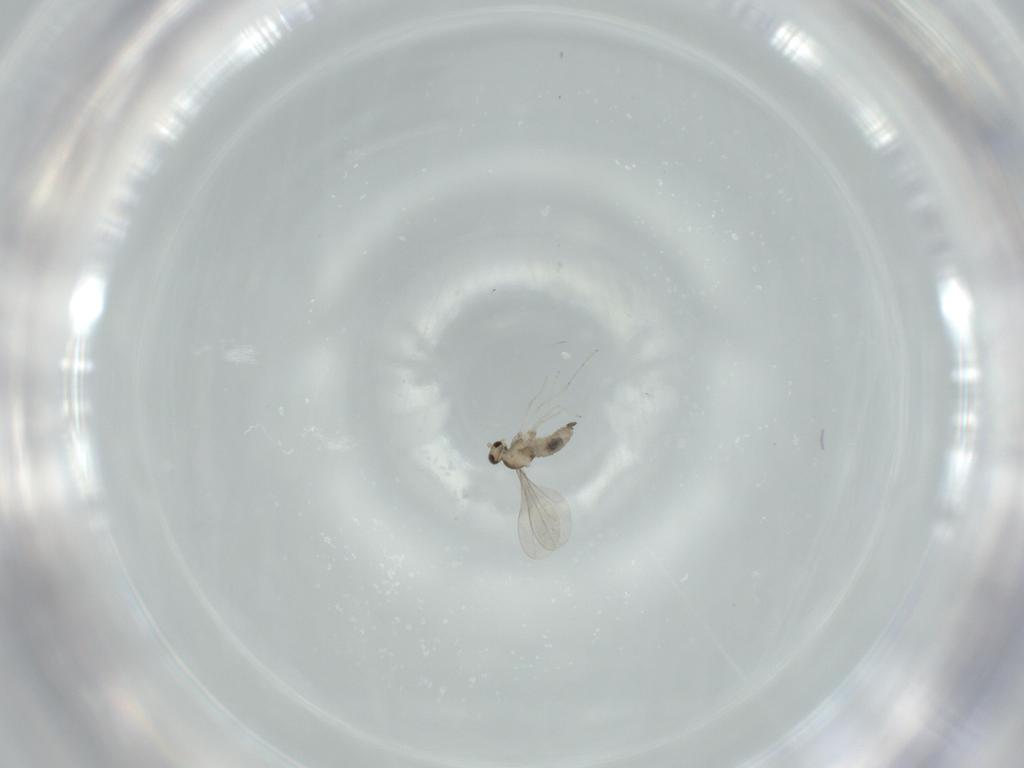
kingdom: Animalia
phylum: Arthropoda
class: Insecta
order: Diptera
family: Cecidomyiidae
